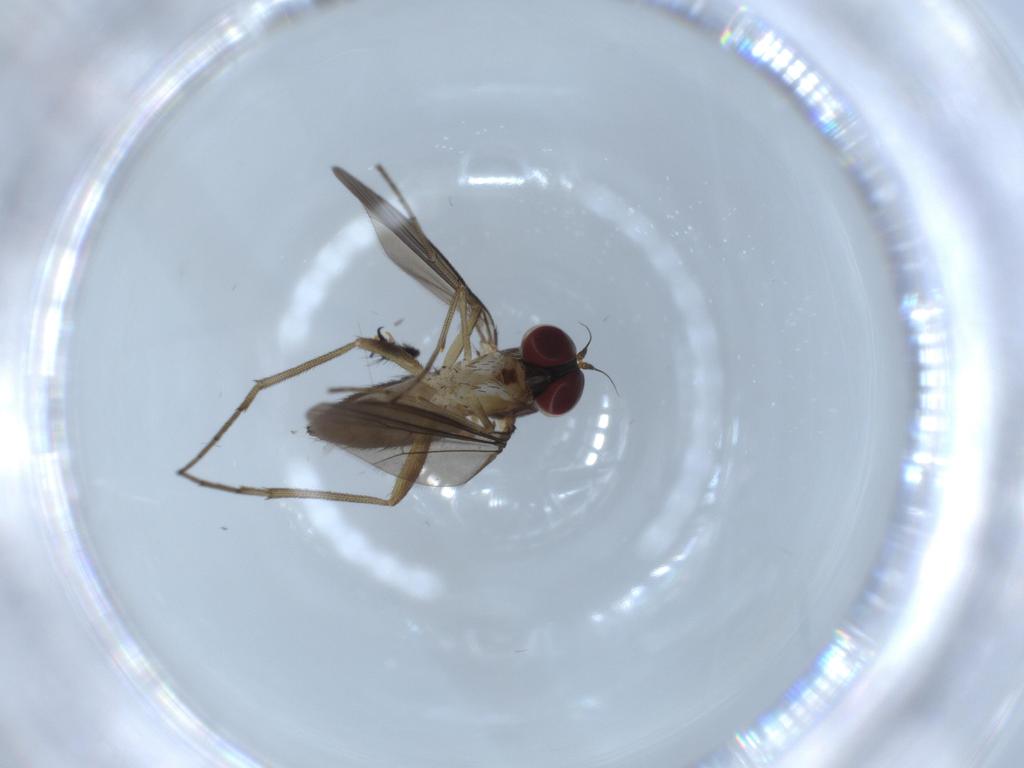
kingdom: Animalia
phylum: Arthropoda
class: Insecta
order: Diptera
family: Dolichopodidae
